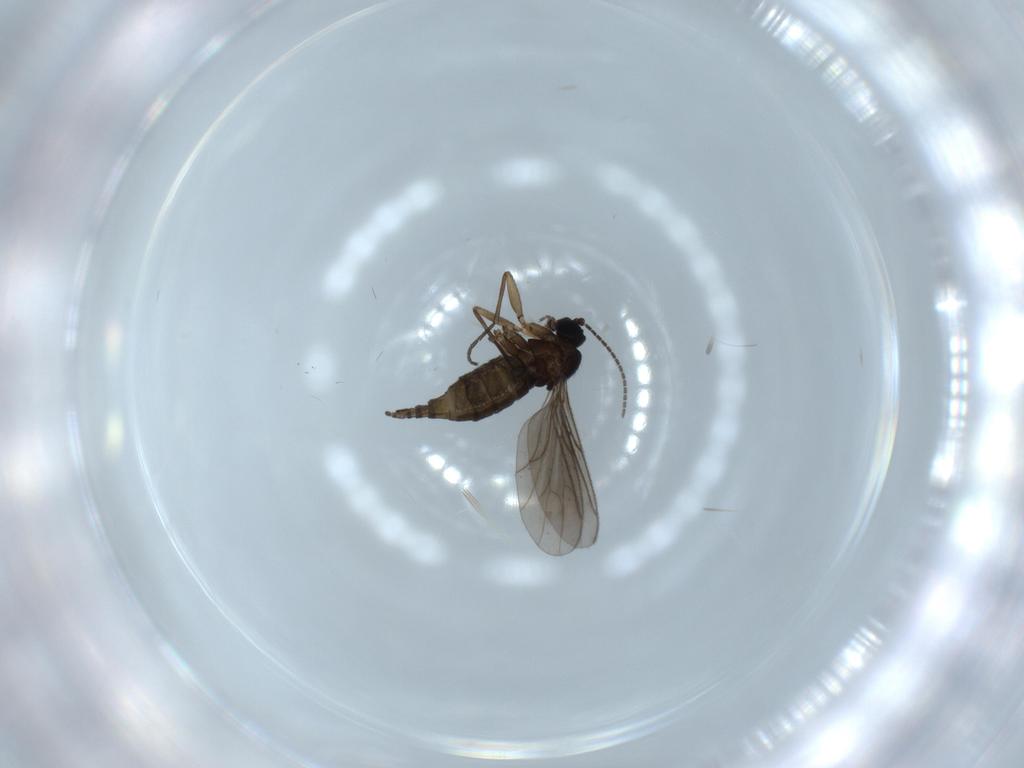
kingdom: Animalia
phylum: Arthropoda
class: Insecta
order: Diptera
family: Sciaridae
